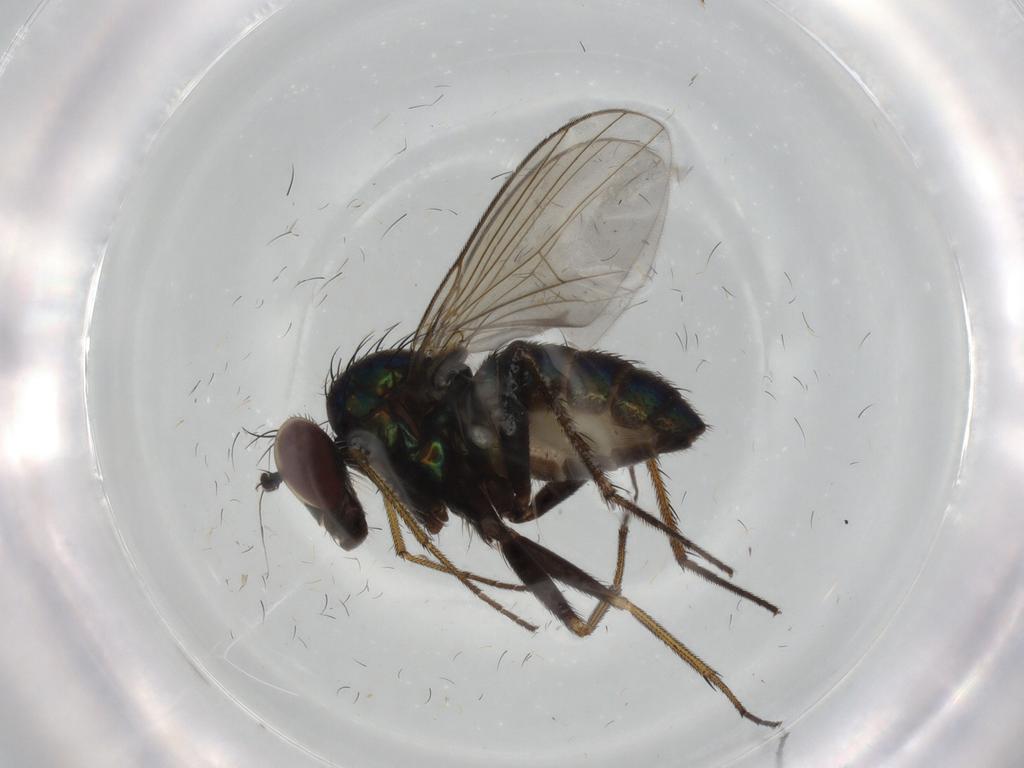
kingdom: Animalia
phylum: Arthropoda
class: Insecta
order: Diptera
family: Dolichopodidae
